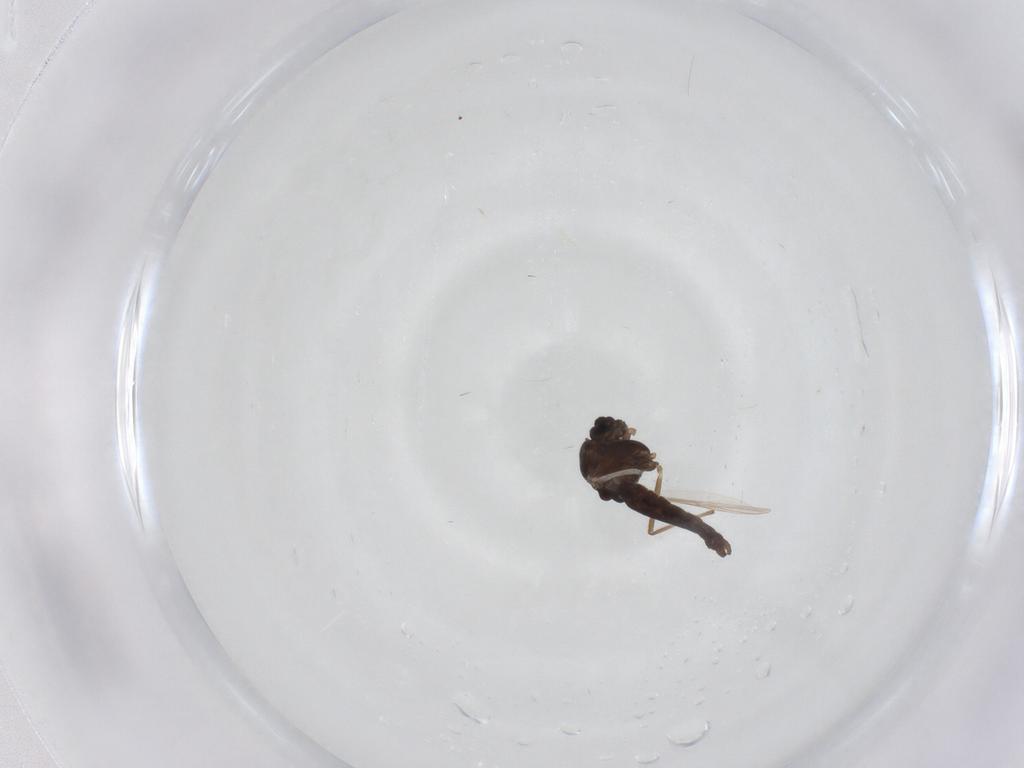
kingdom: Animalia
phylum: Arthropoda
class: Insecta
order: Diptera
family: Chironomidae
